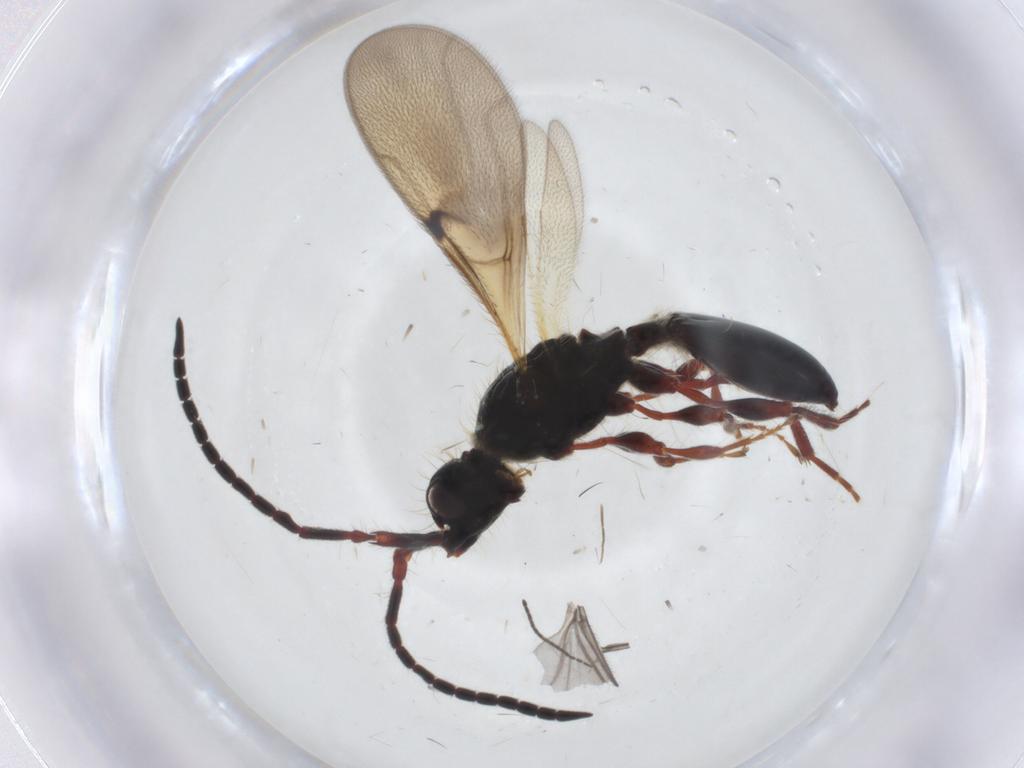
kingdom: Animalia
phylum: Arthropoda
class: Insecta
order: Hymenoptera
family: Diapriidae
